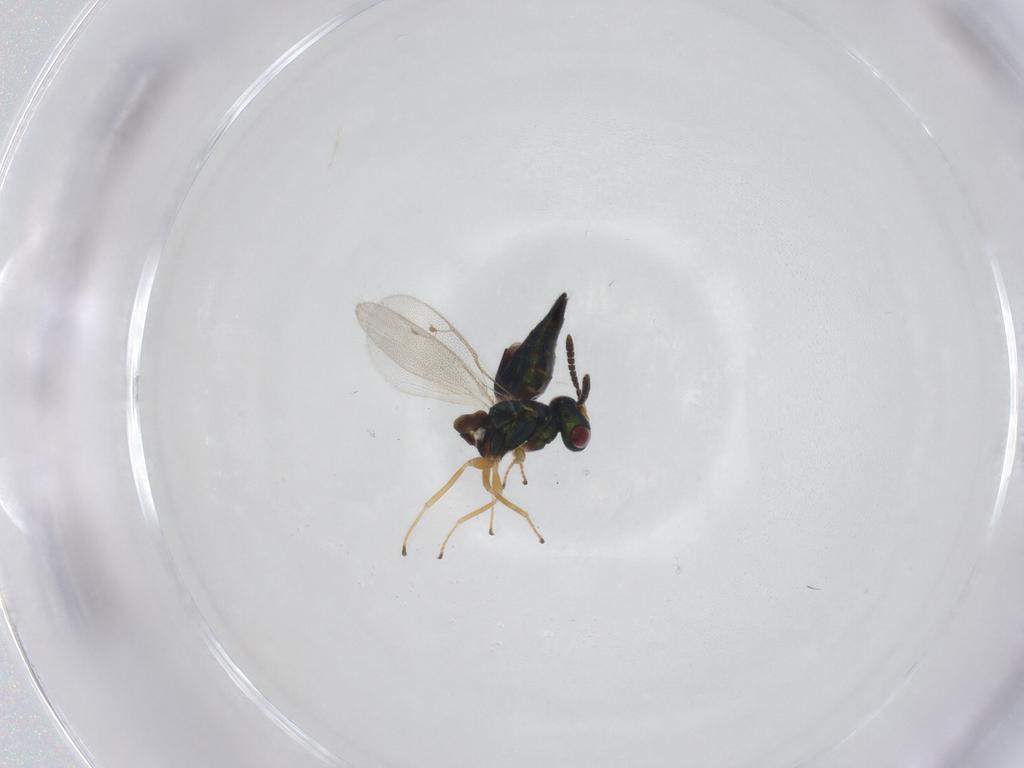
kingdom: Animalia
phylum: Arthropoda
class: Insecta
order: Hymenoptera
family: Pteromalidae
